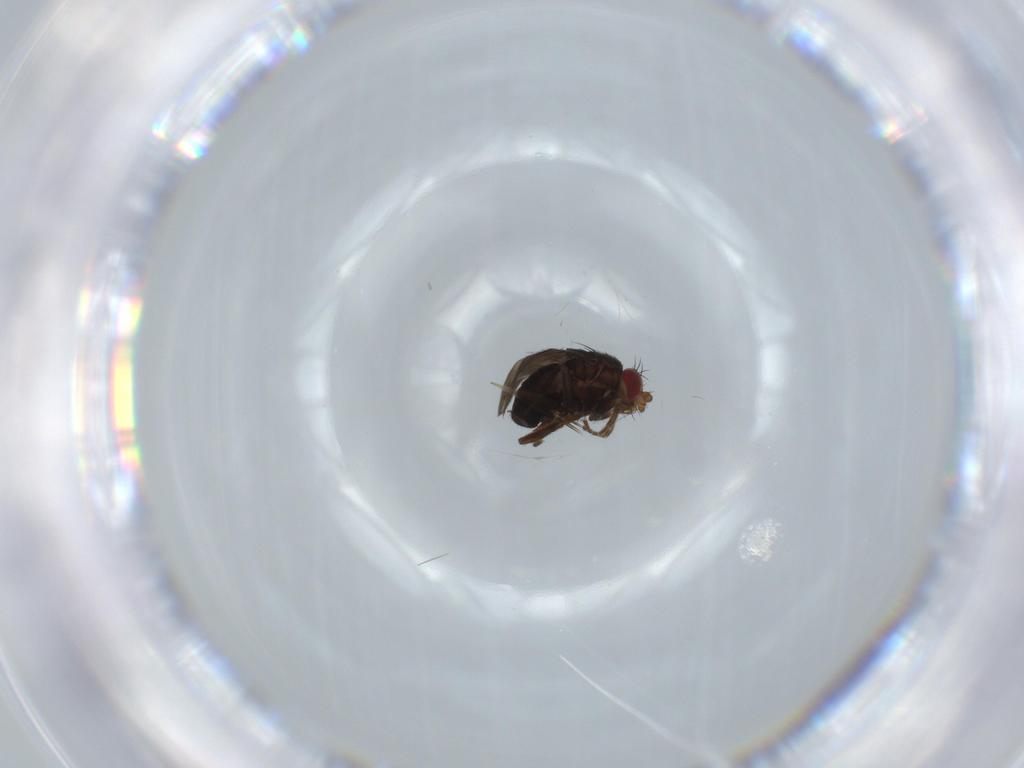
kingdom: Animalia
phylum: Arthropoda
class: Insecta
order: Diptera
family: Sphaeroceridae
